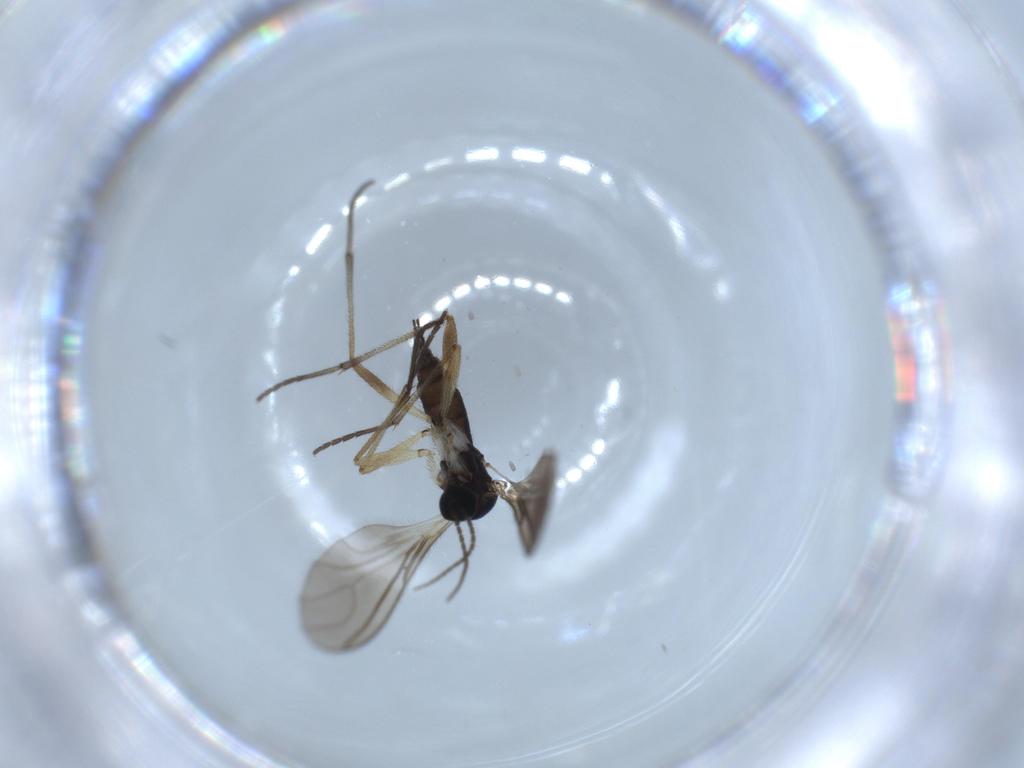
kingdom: Animalia
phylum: Arthropoda
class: Insecta
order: Diptera
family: Sciaridae
